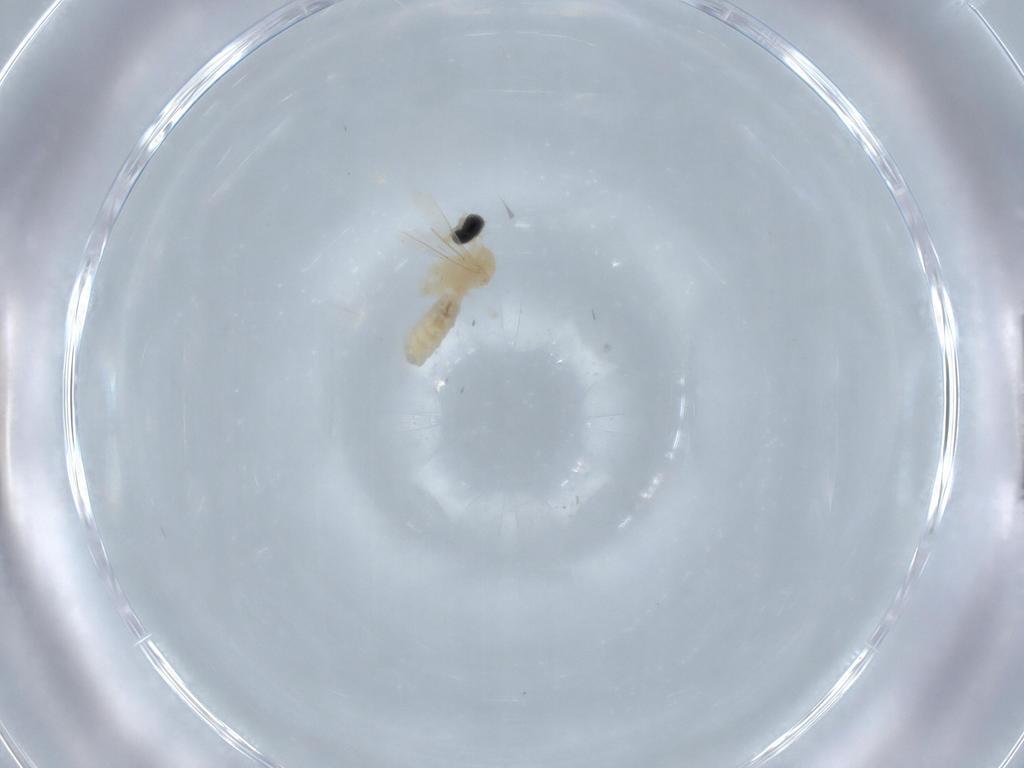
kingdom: Animalia
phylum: Arthropoda
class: Insecta
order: Diptera
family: Cecidomyiidae
